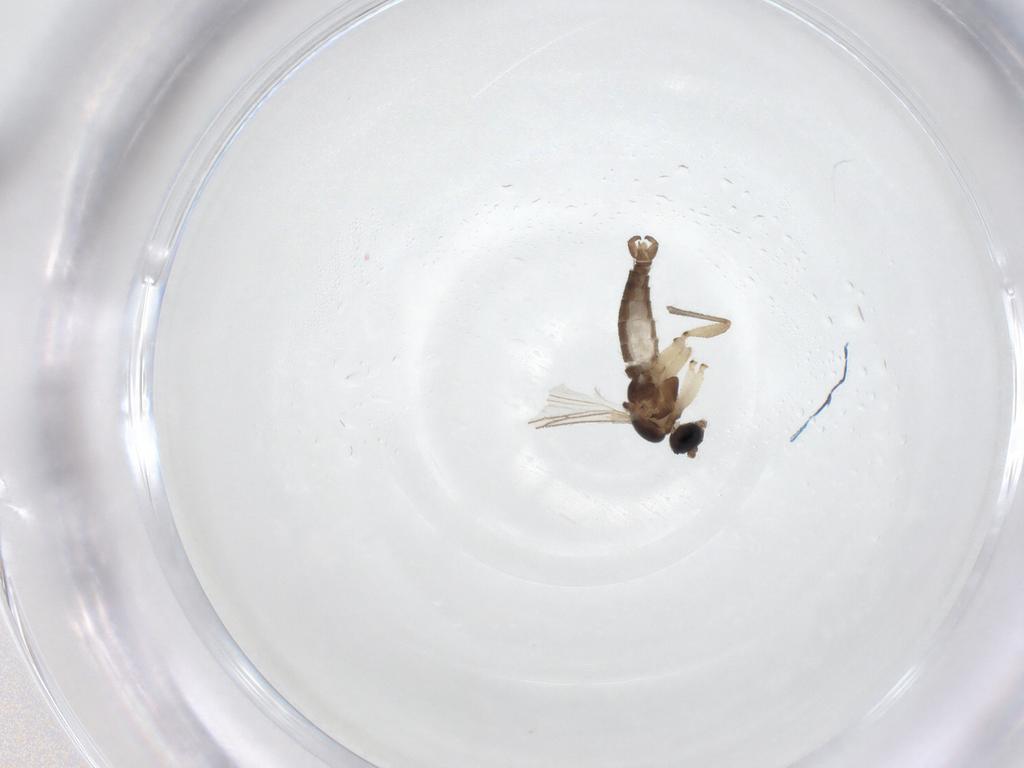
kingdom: Animalia
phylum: Arthropoda
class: Insecta
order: Diptera
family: Sciaridae
